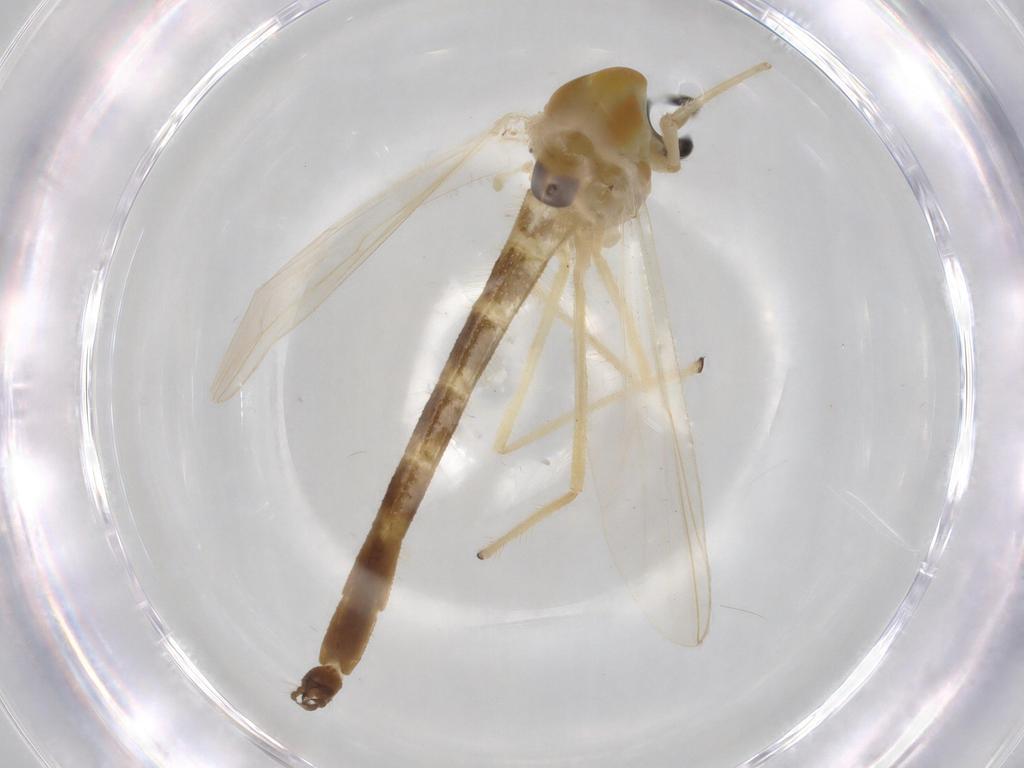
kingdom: Animalia
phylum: Arthropoda
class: Insecta
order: Diptera
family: Chironomidae
